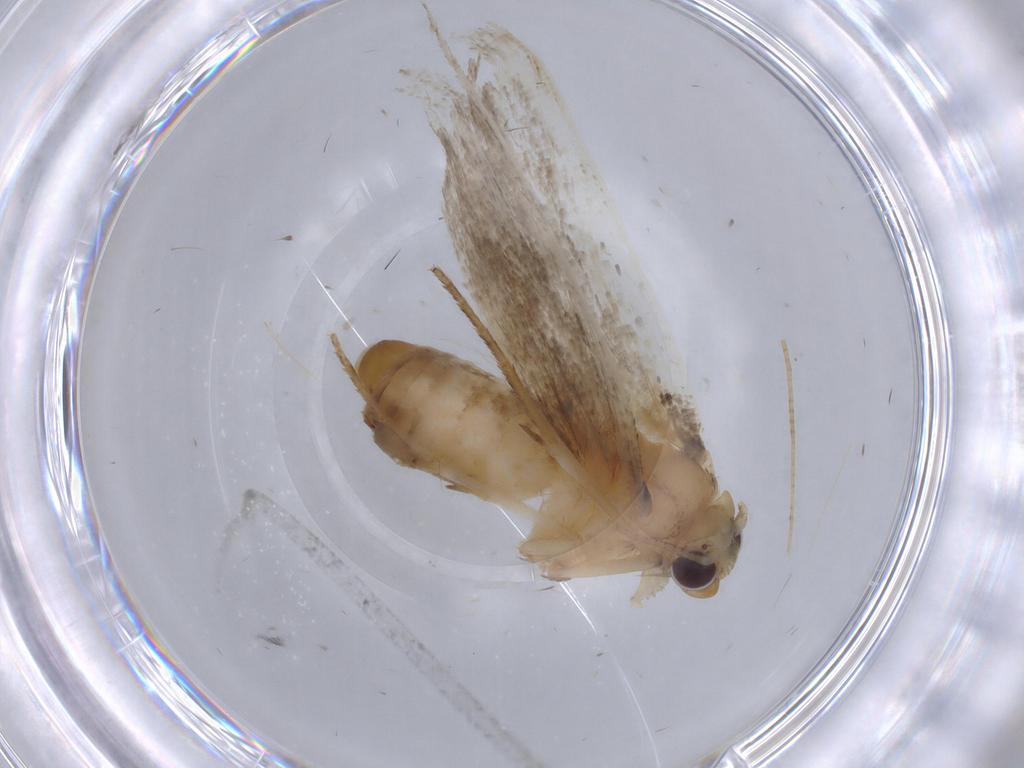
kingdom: Animalia
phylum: Arthropoda
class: Insecta
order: Lepidoptera
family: Erebidae
